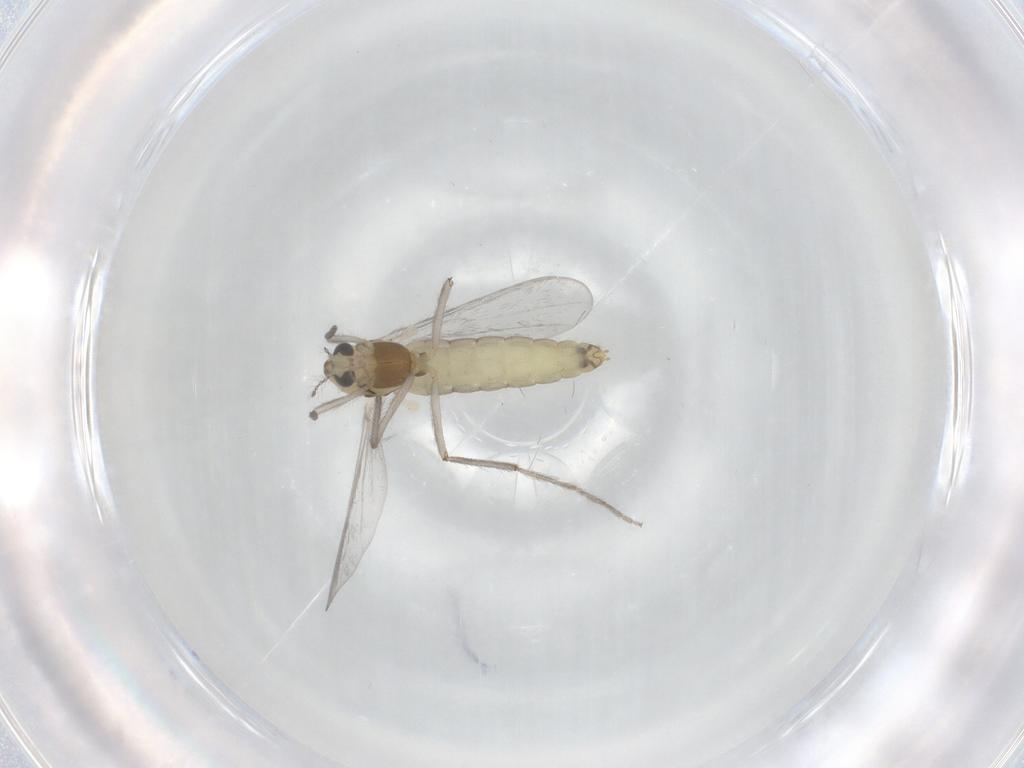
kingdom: Animalia
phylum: Arthropoda
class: Insecta
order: Diptera
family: Chironomidae
